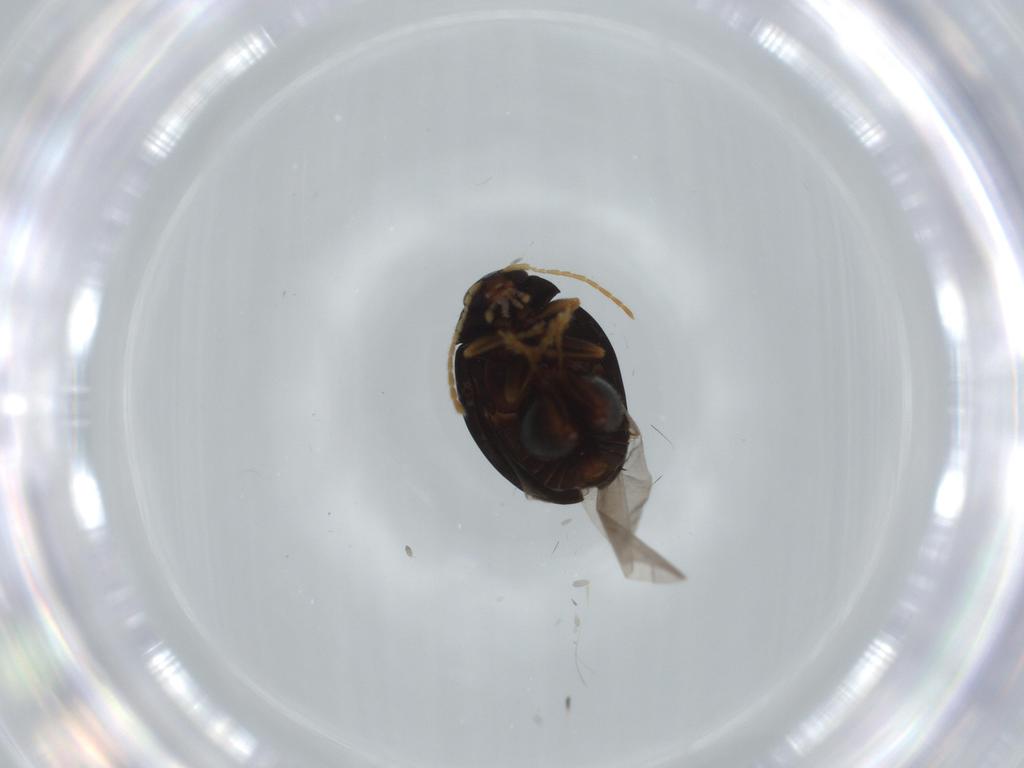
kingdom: Animalia
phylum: Arthropoda
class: Insecta
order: Coleoptera
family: Chrysomelidae
